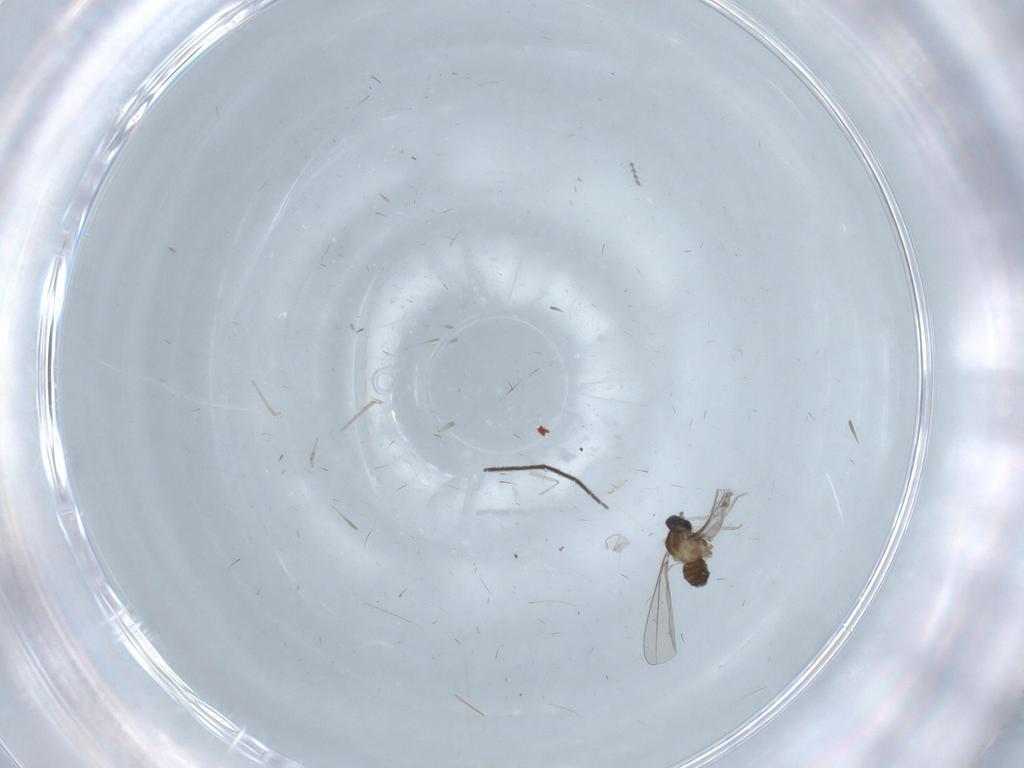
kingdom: Animalia
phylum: Arthropoda
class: Insecta
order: Diptera
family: Cecidomyiidae
